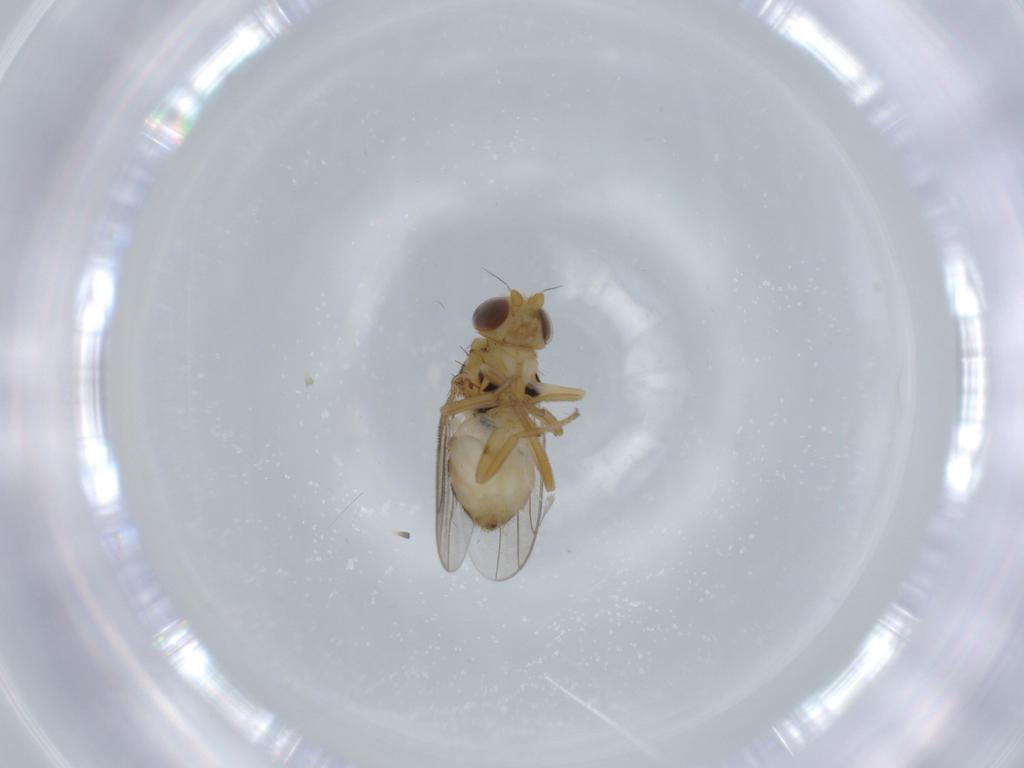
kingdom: Animalia
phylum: Arthropoda
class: Insecta
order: Diptera
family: Chloropidae
